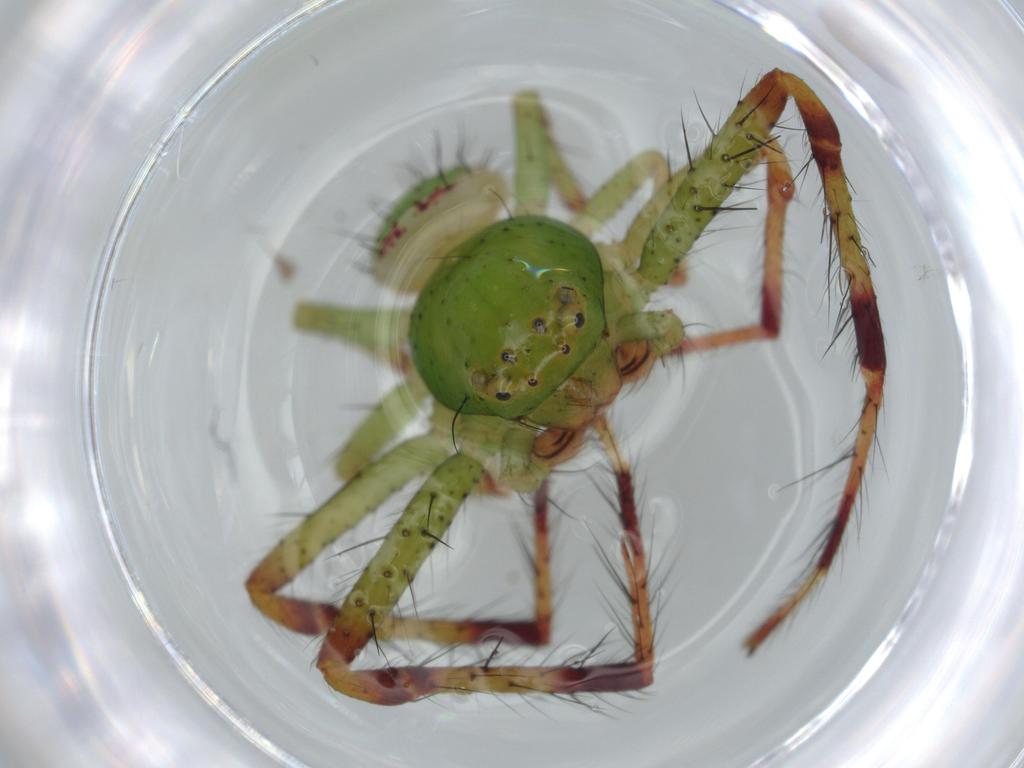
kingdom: Animalia
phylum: Arthropoda
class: Arachnida
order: Araneae
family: Thomisidae
